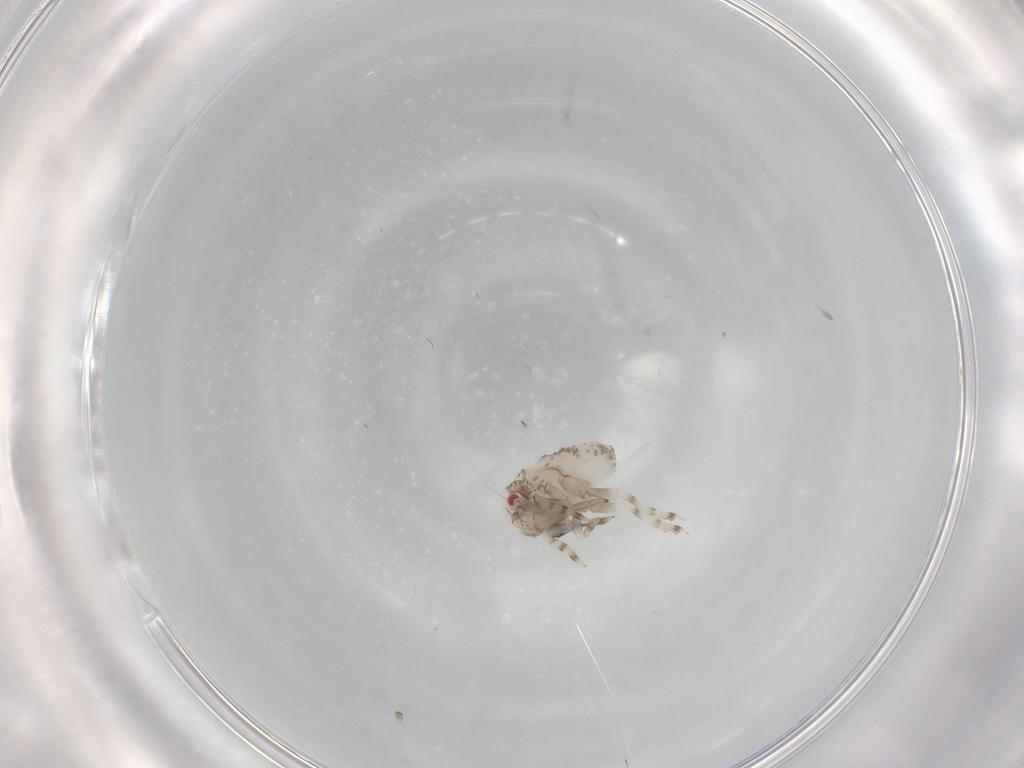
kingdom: Animalia
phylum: Arthropoda
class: Insecta
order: Hemiptera
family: Acanaloniidae
